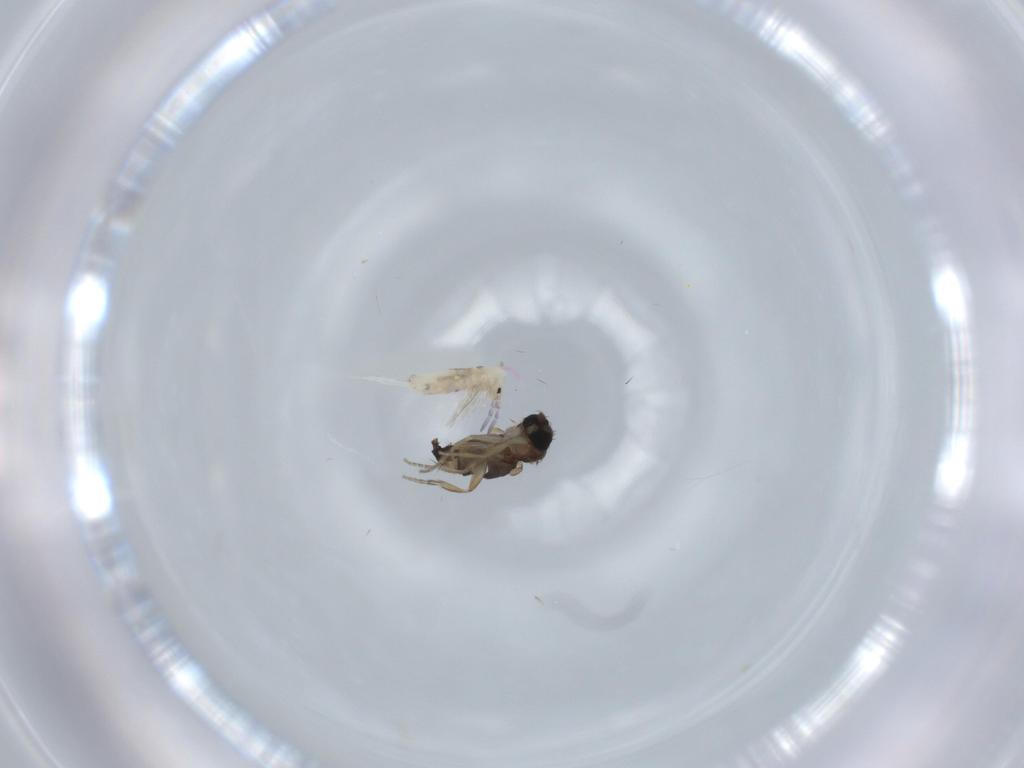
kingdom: Animalia
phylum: Arthropoda
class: Insecta
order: Diptera
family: Phoridae
